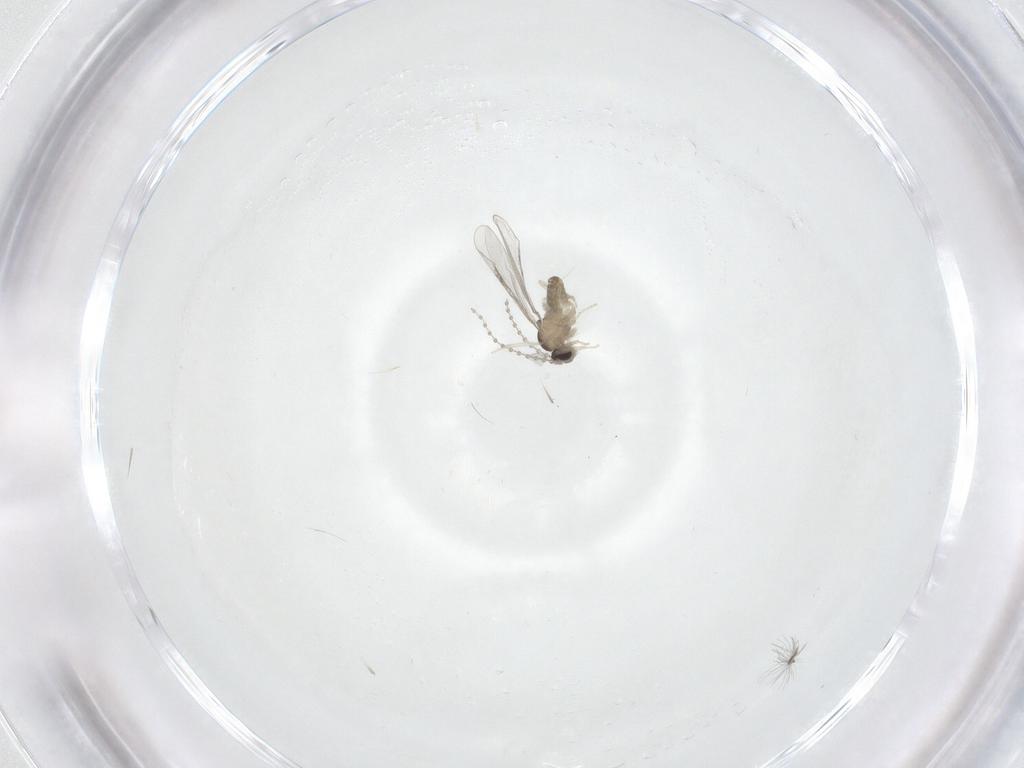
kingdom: Animalia
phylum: Arthropoda
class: Insecta
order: Diptera
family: Cecidomyiidae
